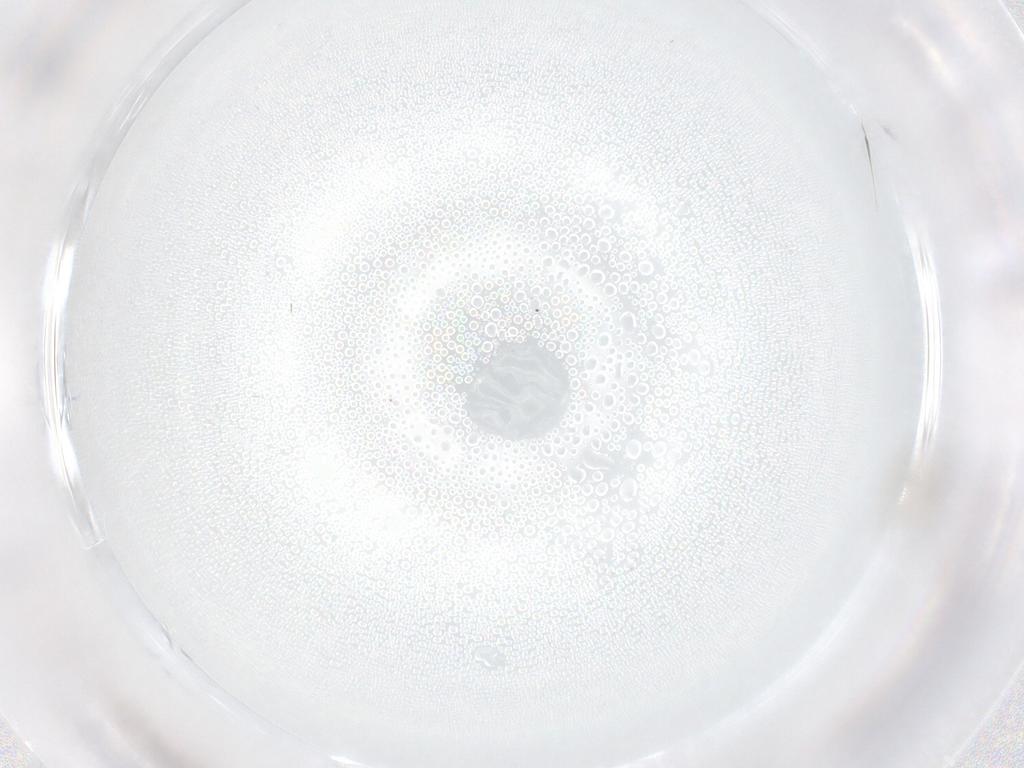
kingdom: Animalia
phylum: Arthropoda
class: Insecta
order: Diptera
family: Cecidomyiidae
